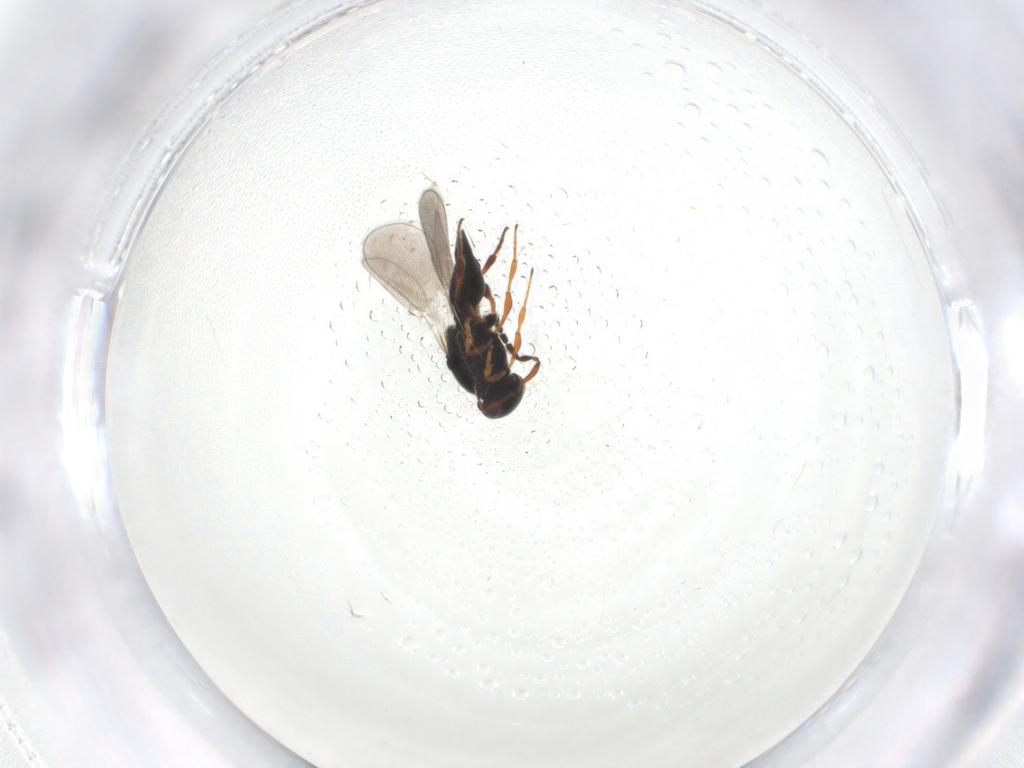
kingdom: Animalia
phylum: Arthropoda
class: Insecta
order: Hymenoptera
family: Platygastridae
